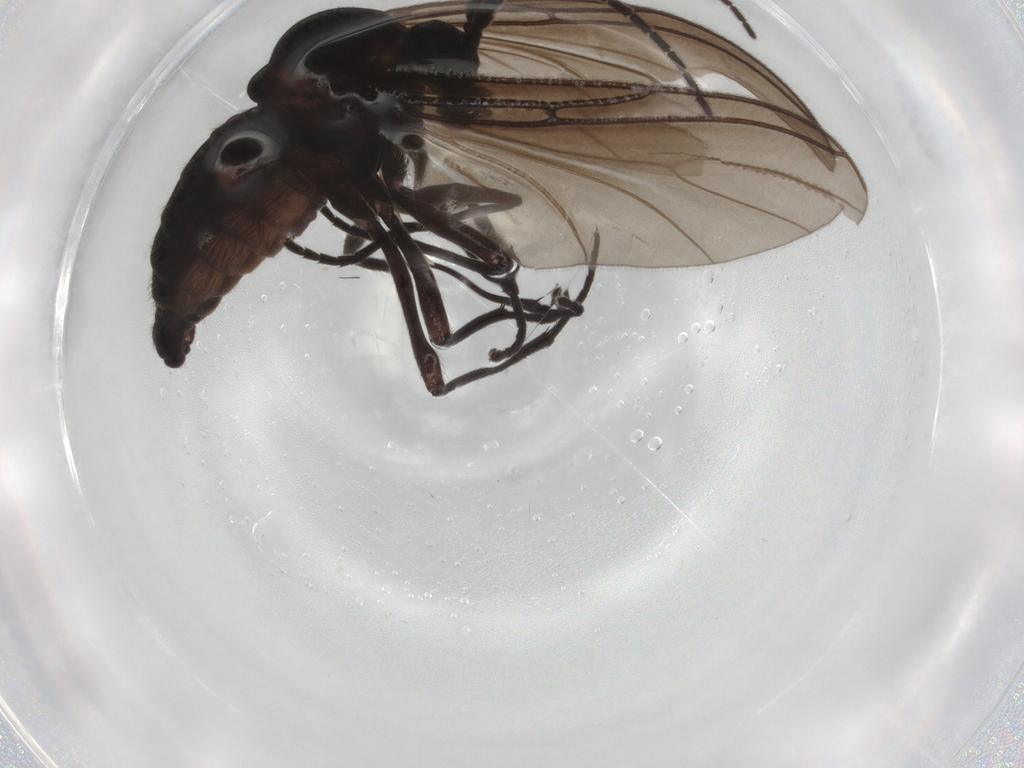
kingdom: Animalia
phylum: Arthropoda
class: Insecta
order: Diptera
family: Sciaridae
